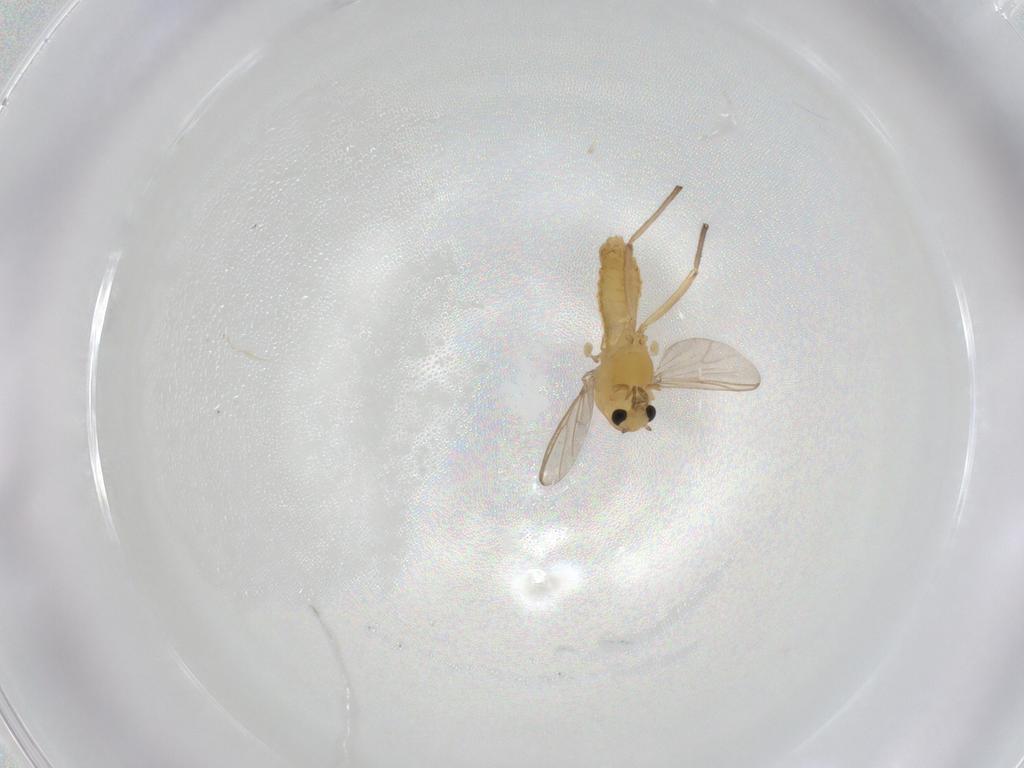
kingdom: Animalia
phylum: Arthropoda
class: Insecta
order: Diptera
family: Chironomidae
